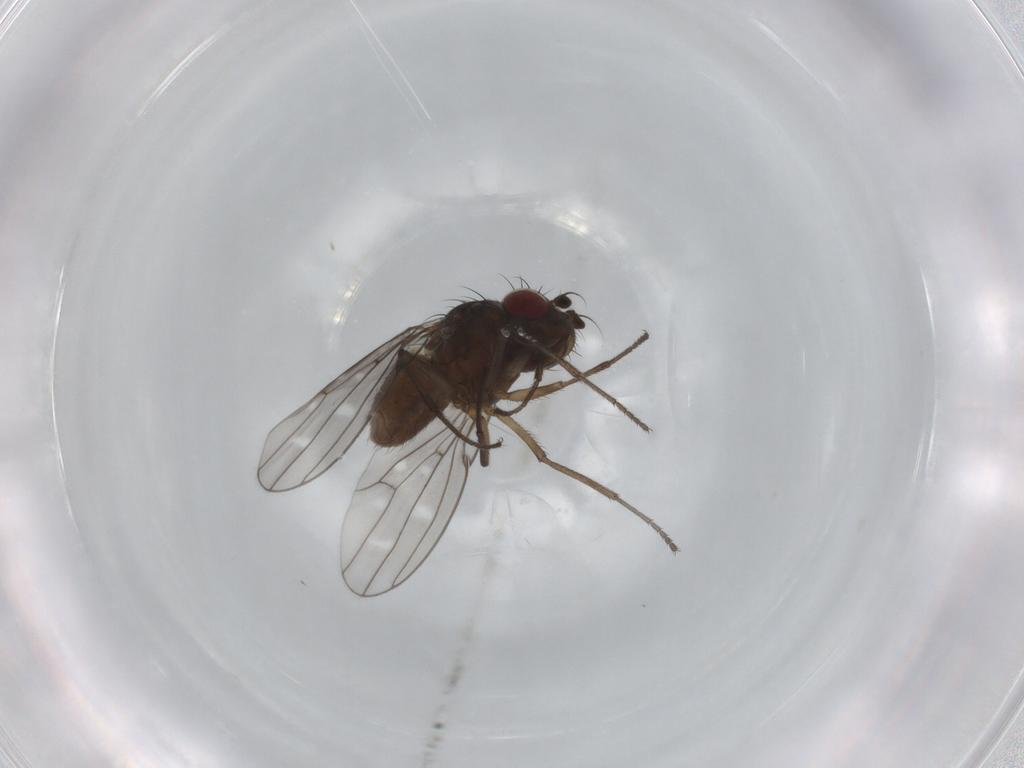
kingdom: Animalia
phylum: Arthropoda
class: Insecta
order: Diptera
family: Ephydridae
